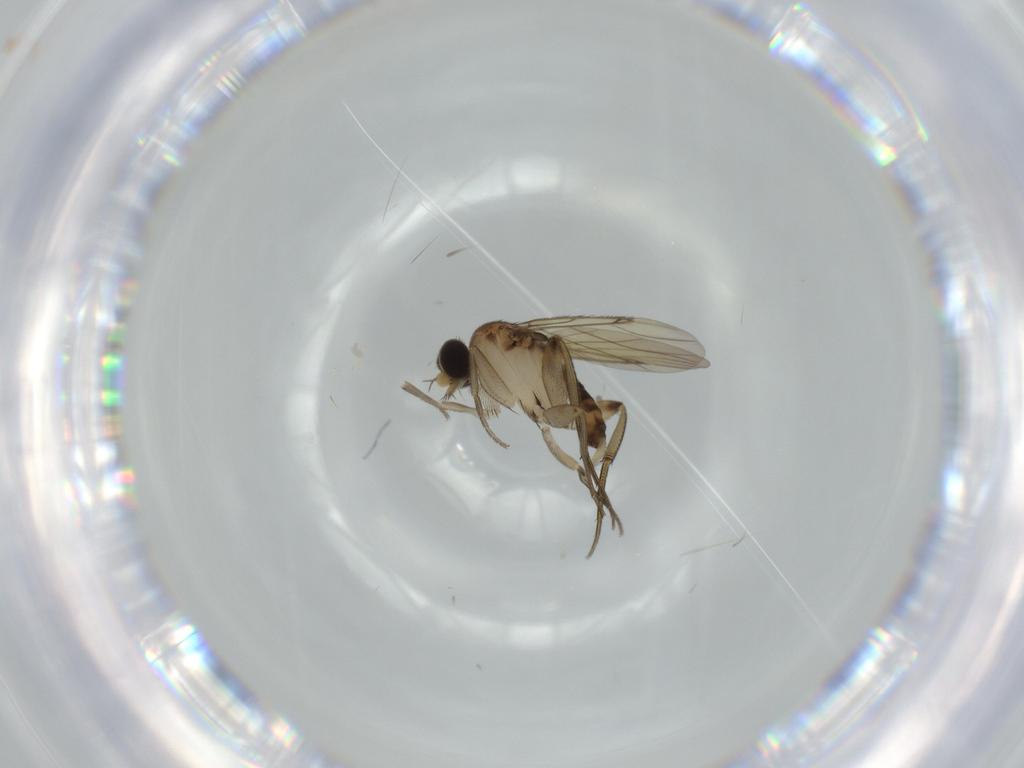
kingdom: Animalia
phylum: Arthropoda
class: Insecta
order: Diptera
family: Phoridae
